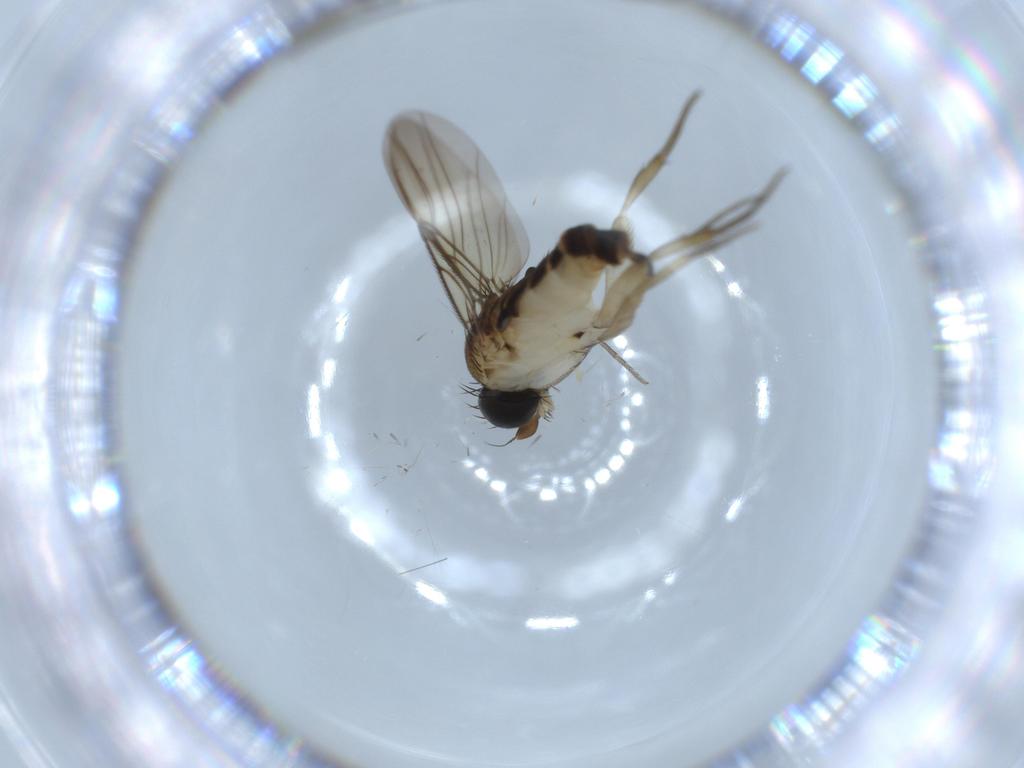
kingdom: Animalia
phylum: Arthropoda
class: Insecta
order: Diptera
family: Phoridae
